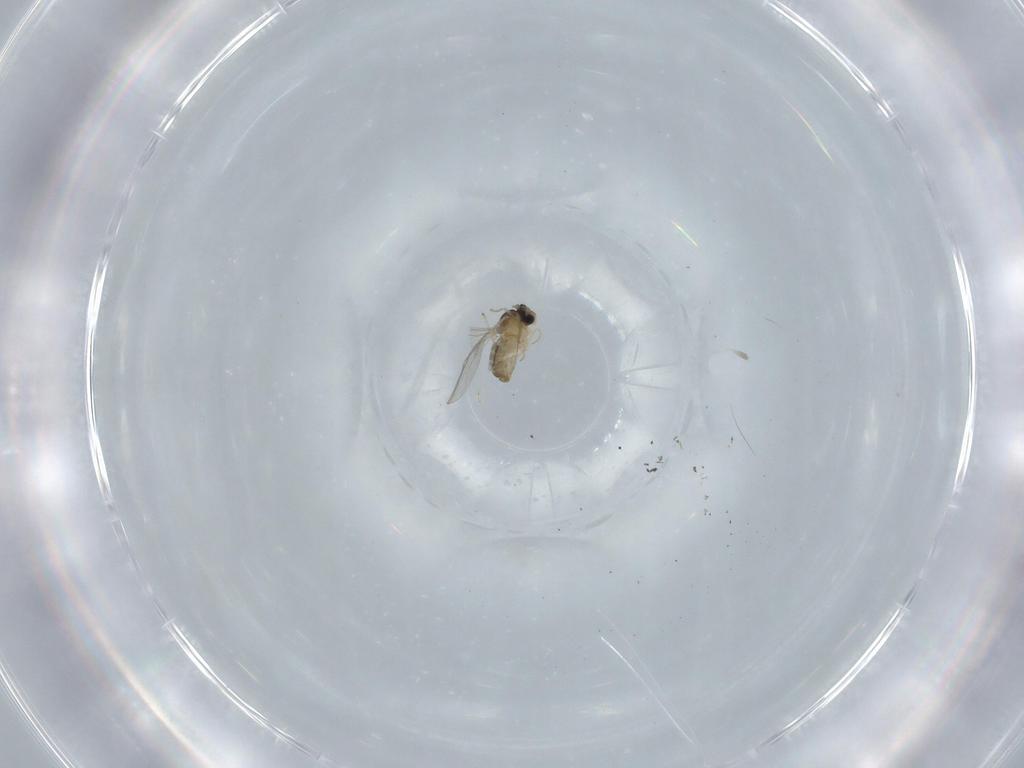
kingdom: Animalia
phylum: Arthropoda
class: Insecta
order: Diptera
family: Cecidomyiidae
